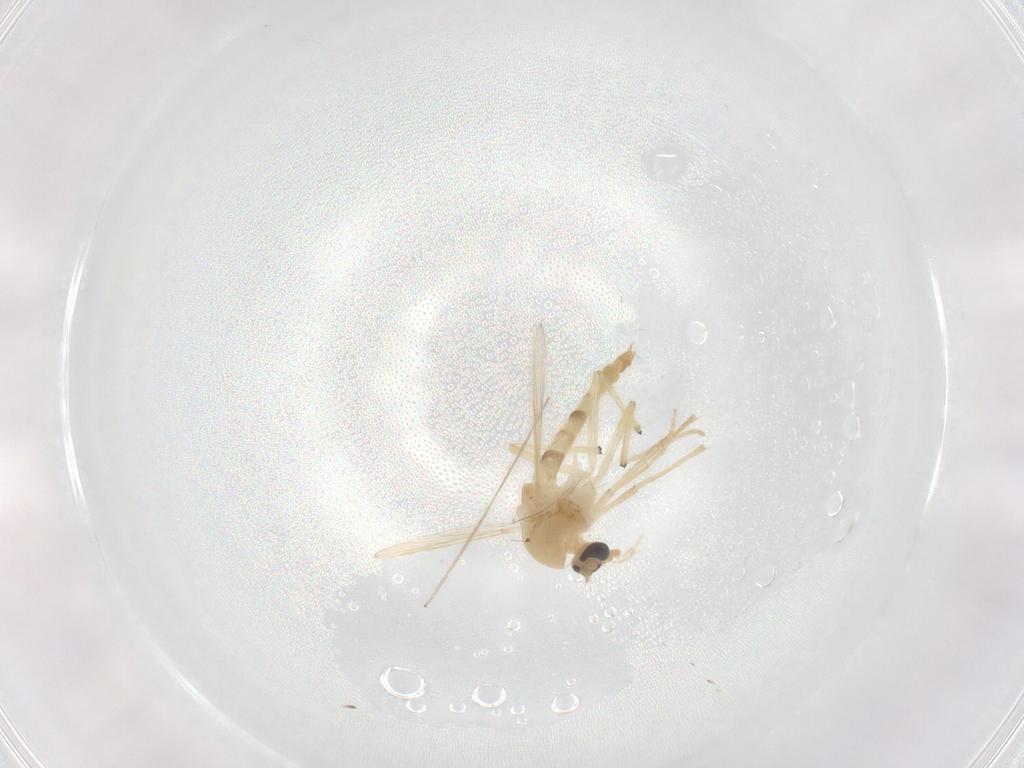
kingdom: Animalia
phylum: Arthropoda
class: Insecta
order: Diptera
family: Chironomidae
